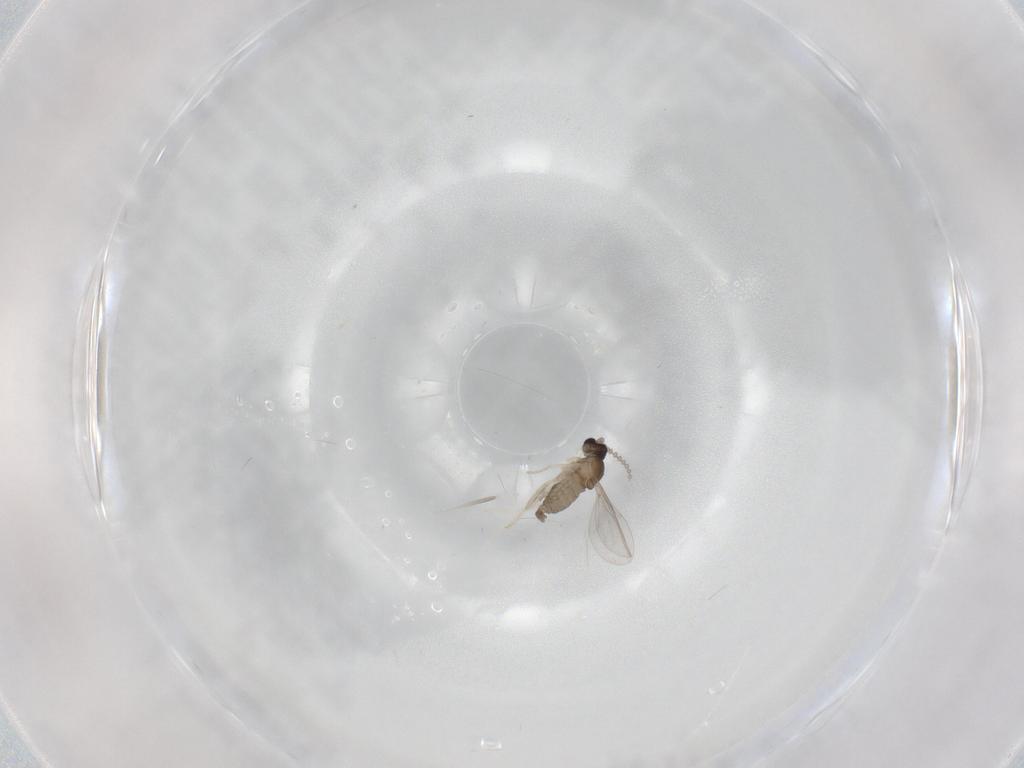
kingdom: Animalia
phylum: Arthropoda
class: Insecta
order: Diptera
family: Cecidomyiidae
